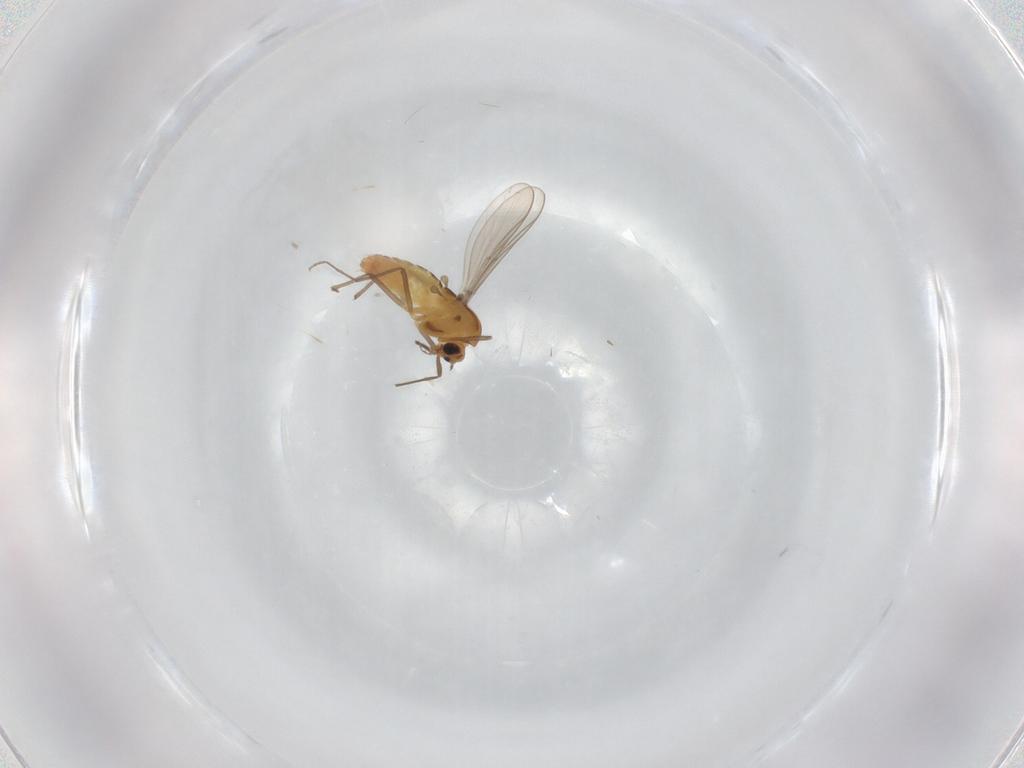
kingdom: Animalia
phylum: Arthropoda
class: Insecta
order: Diptera
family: Chironomidae
